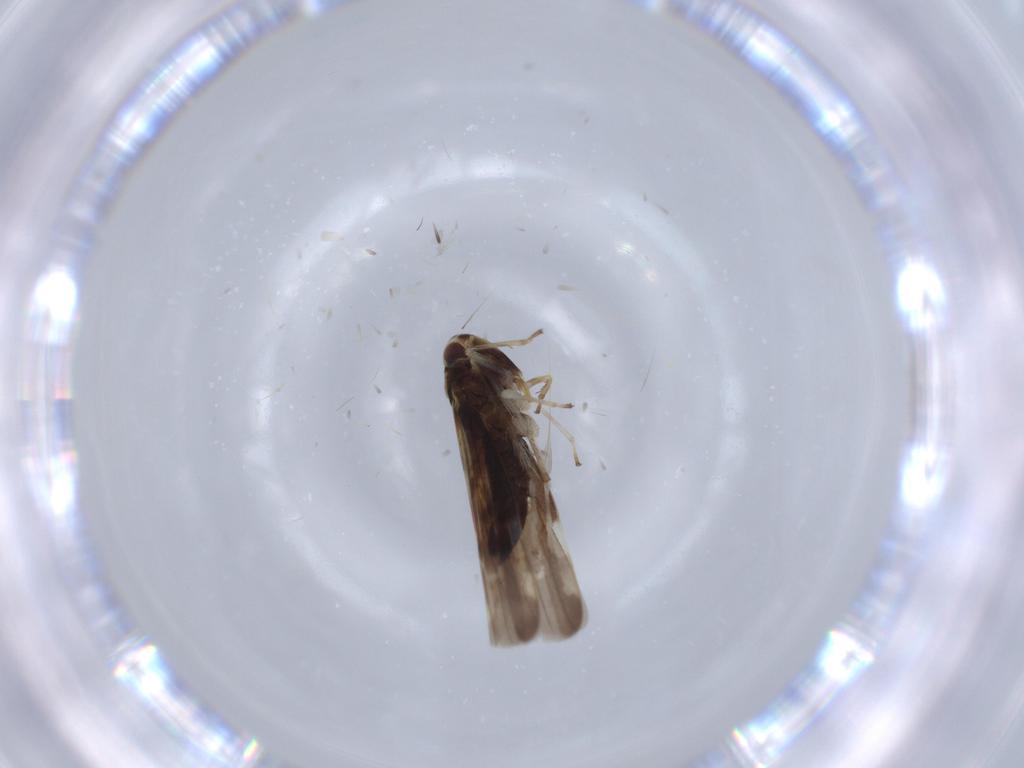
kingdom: Animalia
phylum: Arthropoda
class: Insecta
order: Hemiptera
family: Cicadellidae
